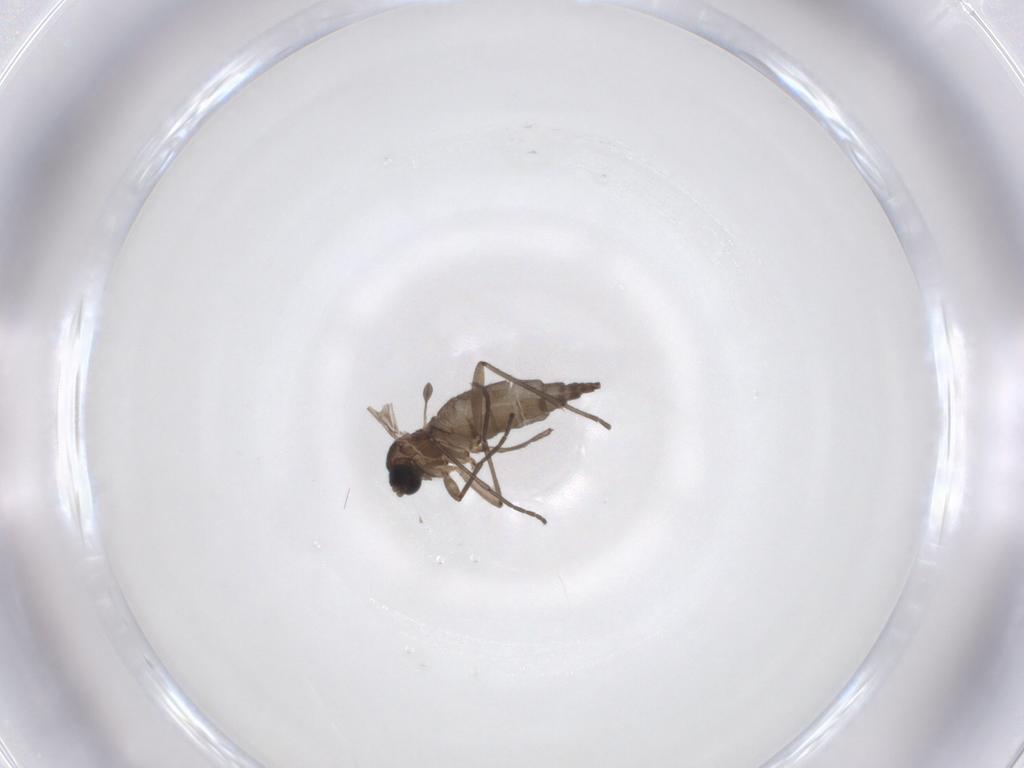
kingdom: Animalia
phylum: Arthropoda
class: Insecta
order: Diptera
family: Sciaridae
